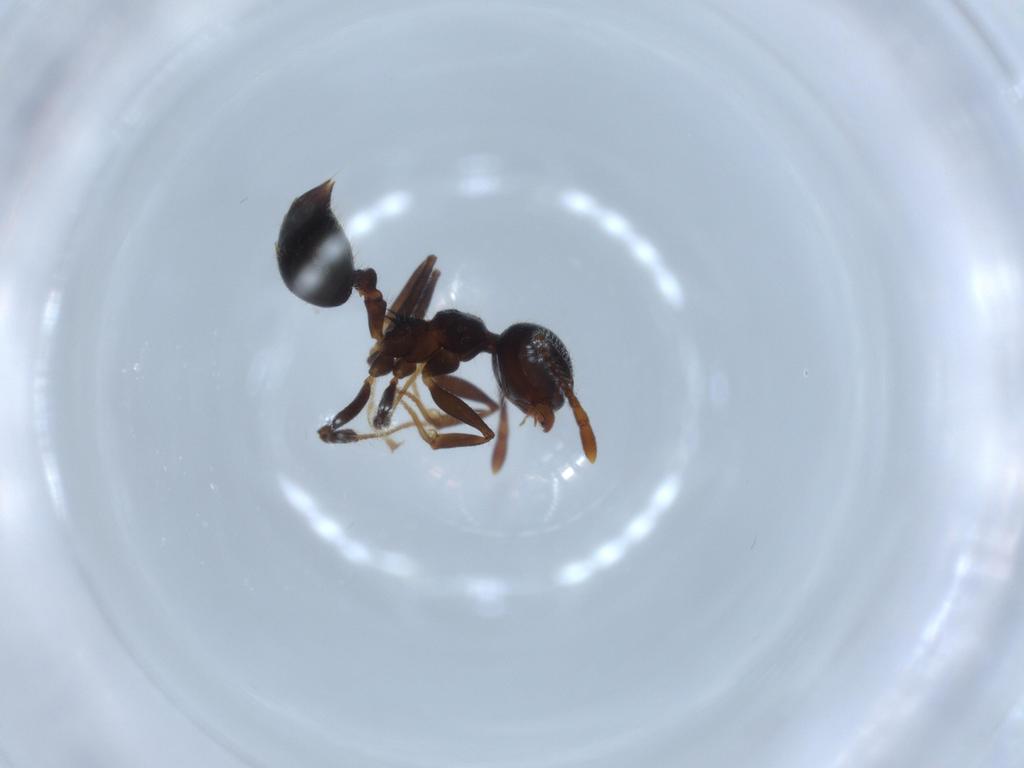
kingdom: Animalia
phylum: Arthropoda
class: Insecta
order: Hymenoptera
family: Formicidae
